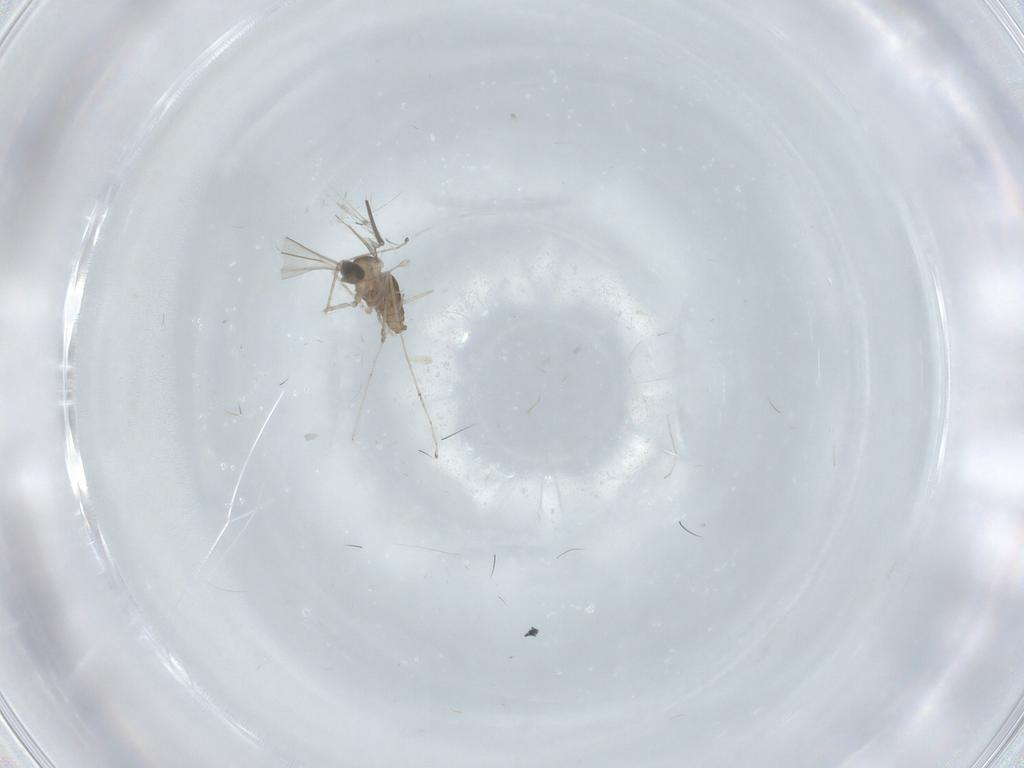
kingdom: Animalia
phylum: Arthropoda
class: Insecta
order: Diptera
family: Cecidomyiidae
